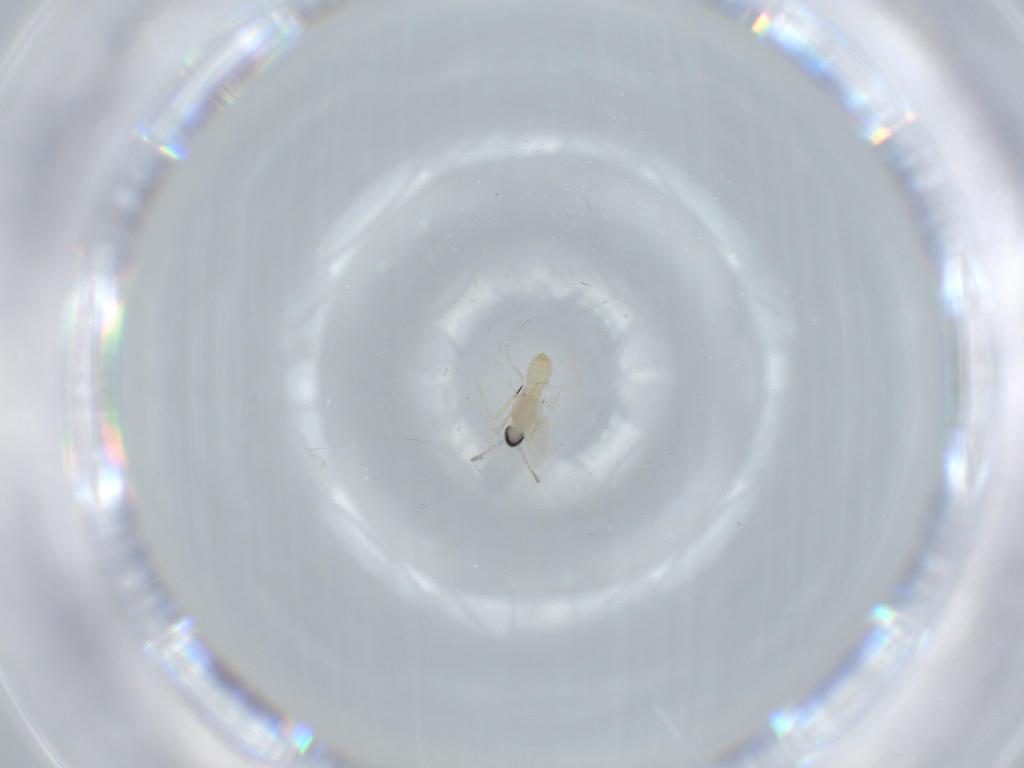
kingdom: Animalia
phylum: Arthropoda
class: Insecta
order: Diptera
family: Cecidomyiidae
